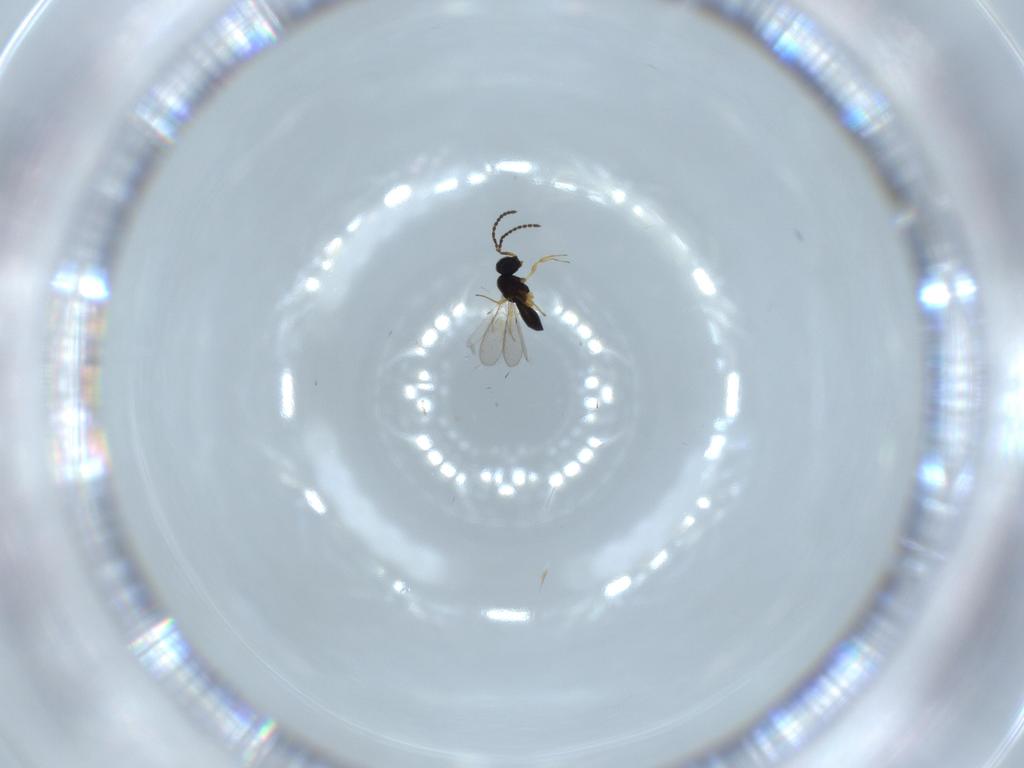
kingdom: Animalia
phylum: Arthropoda
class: Insecta
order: Hymenoptera
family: Scelionidae
